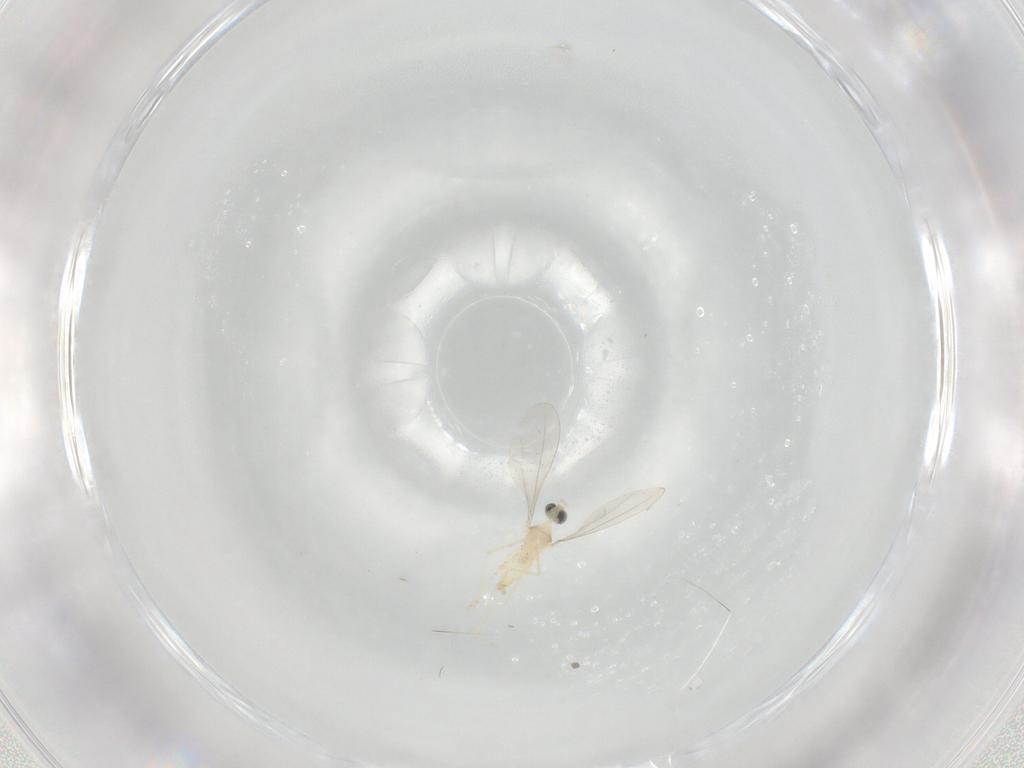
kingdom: Animalia
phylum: Arthropoda
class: Insecta
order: Diptera
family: Cecidomyiidae
